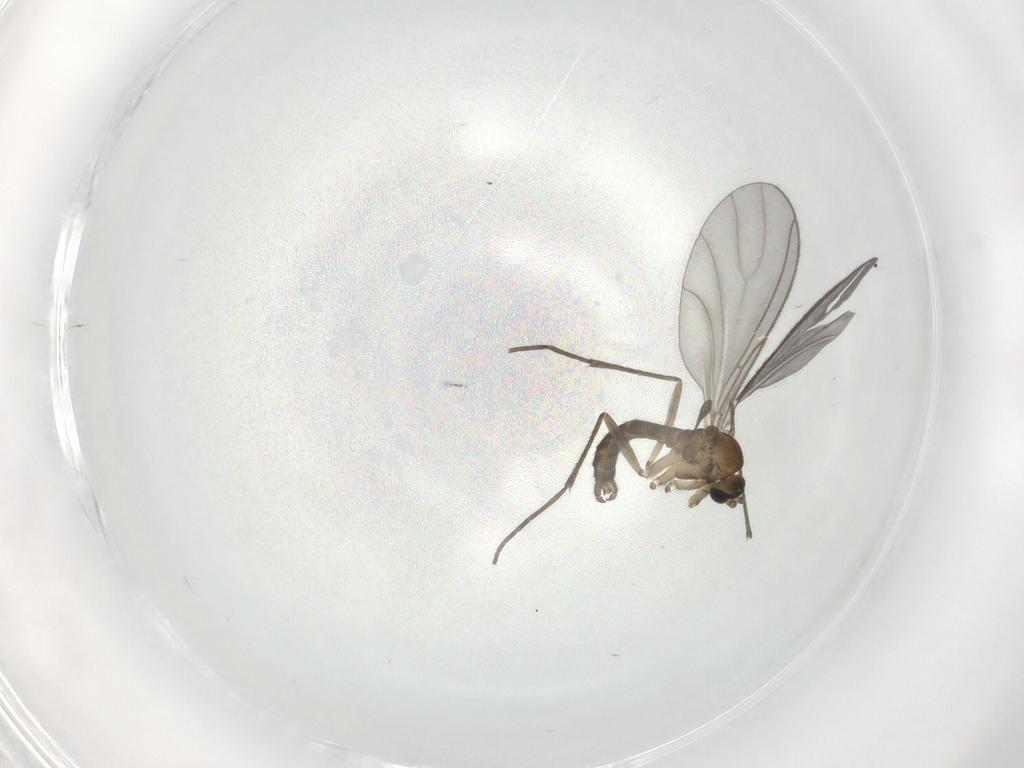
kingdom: Animalia
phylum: Arthropoda
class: Insecta
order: Diptera
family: Sciaridae
